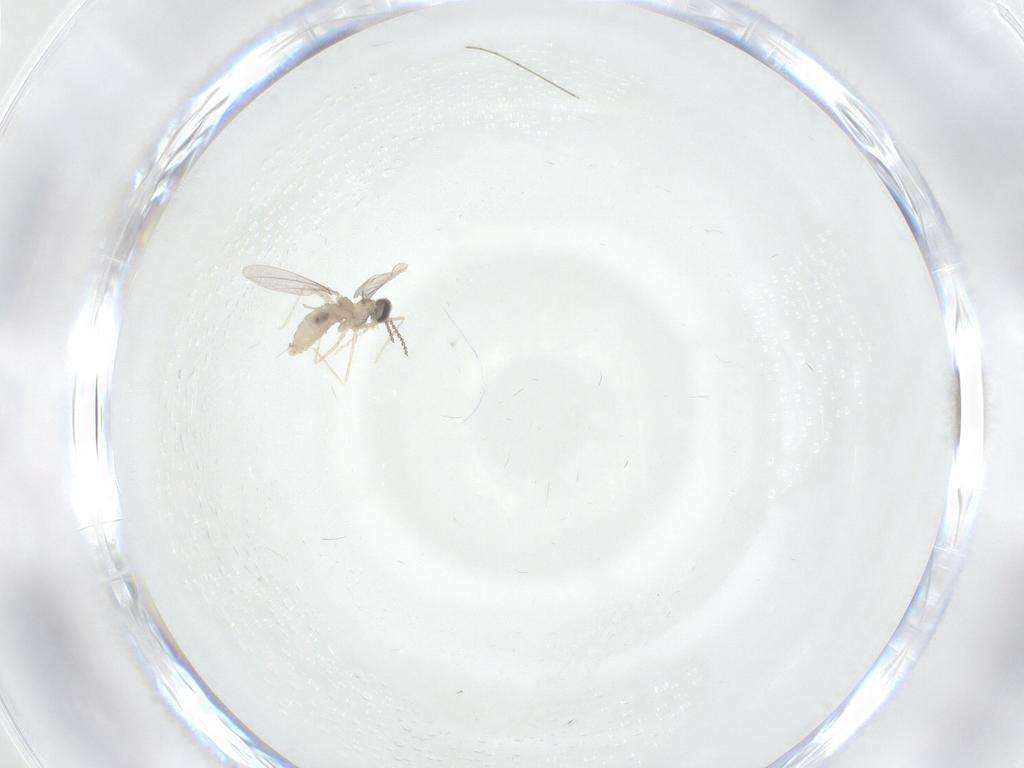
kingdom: Animalia
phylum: Arthropoda
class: Insecta
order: Diptera
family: Cecidomyiidae
